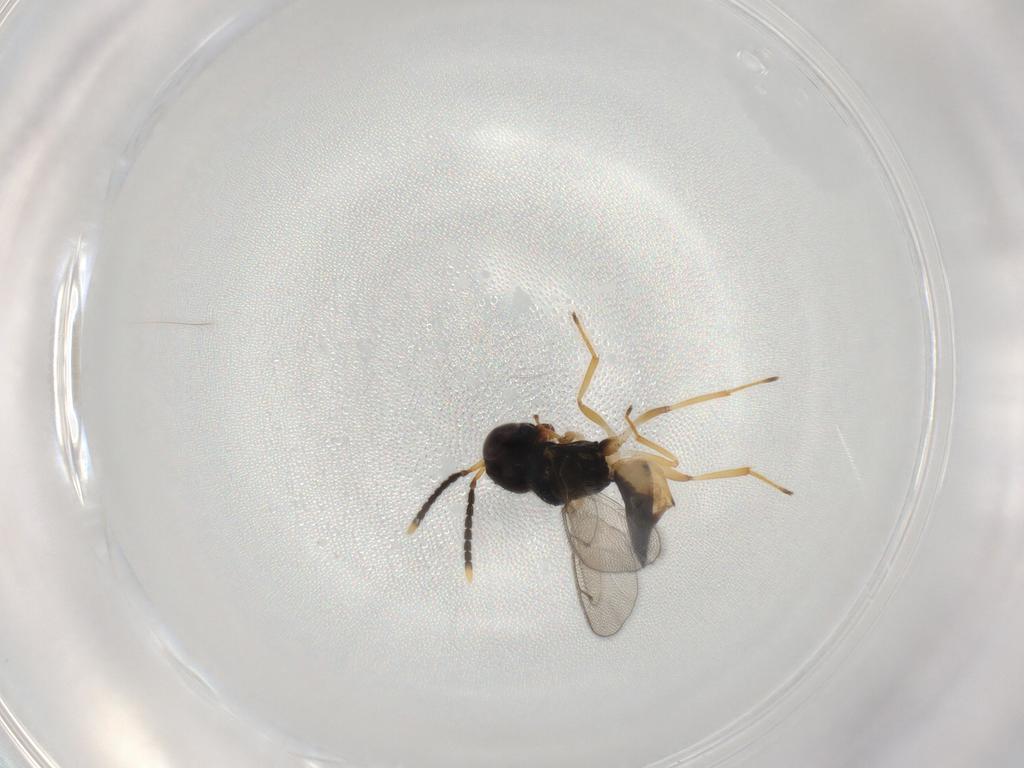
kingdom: Animalia
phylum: Arthropoda
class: Insecta
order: Hymenoptera
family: Pteromalidae
